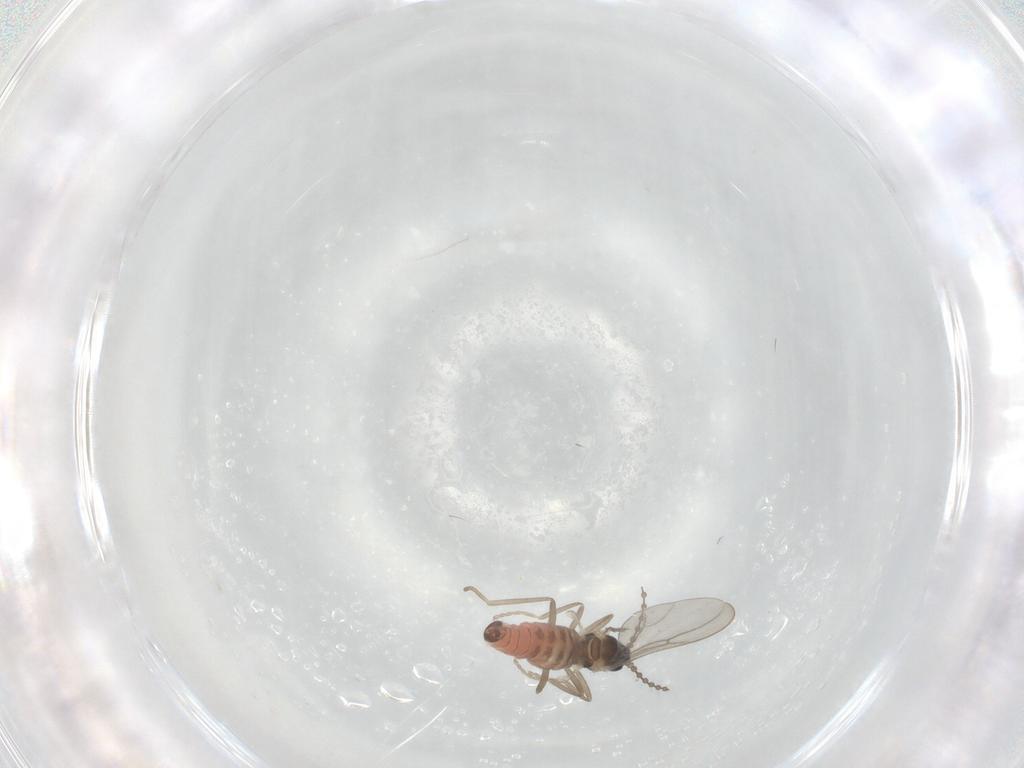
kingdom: Animalia
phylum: Arthropoda
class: Insecta
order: Diptera
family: Cecidomyiidae
